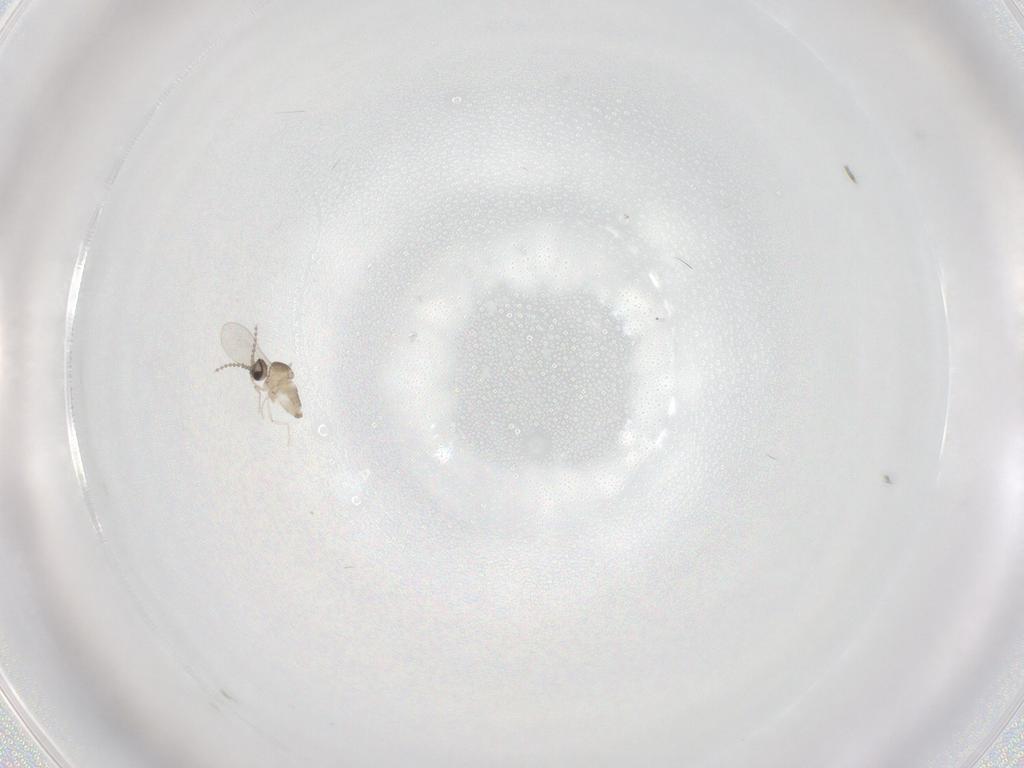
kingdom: Animalia
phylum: Arthropoda
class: Insecta
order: Diptera
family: Cecidomyiidae
